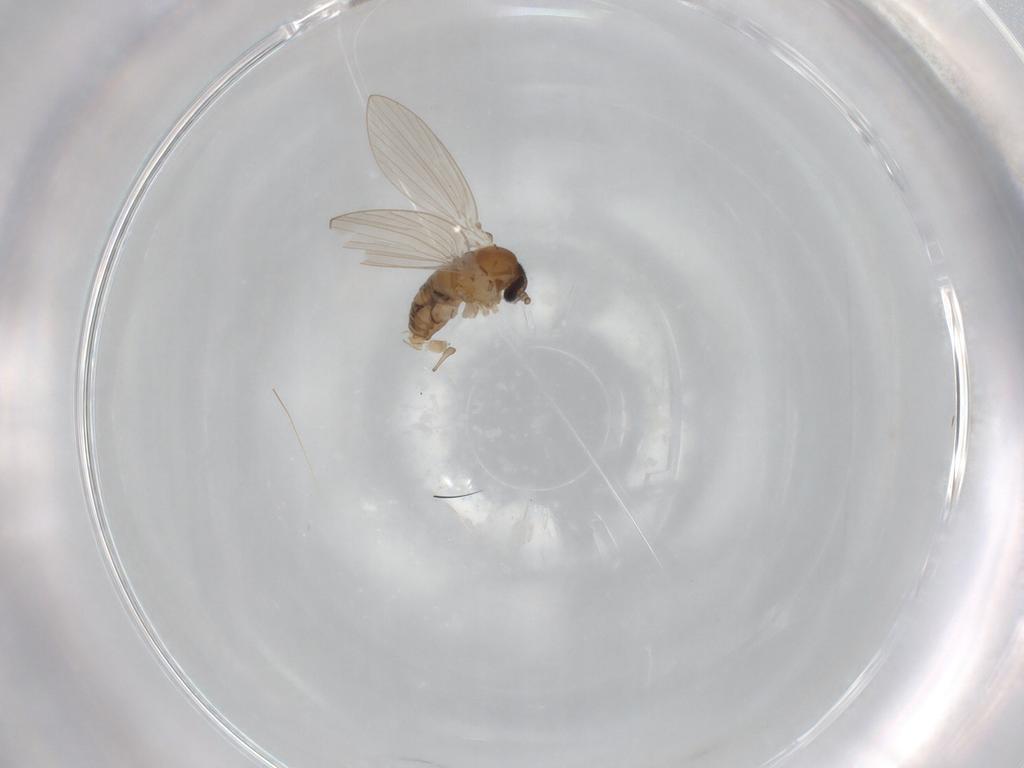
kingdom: Animalia
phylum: Arthropoda
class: Insecta
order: Diptera
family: Psychodidae
